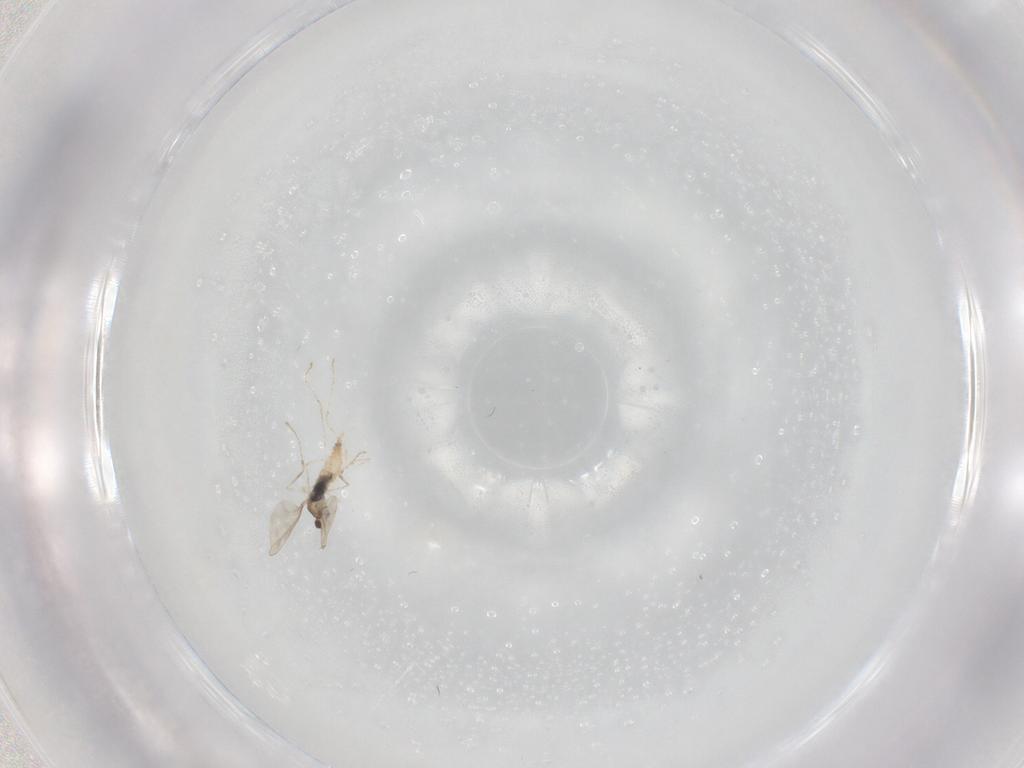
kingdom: Animalia
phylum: Arthropoda
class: Insecta
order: Diptera
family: Cecidomyiidae
